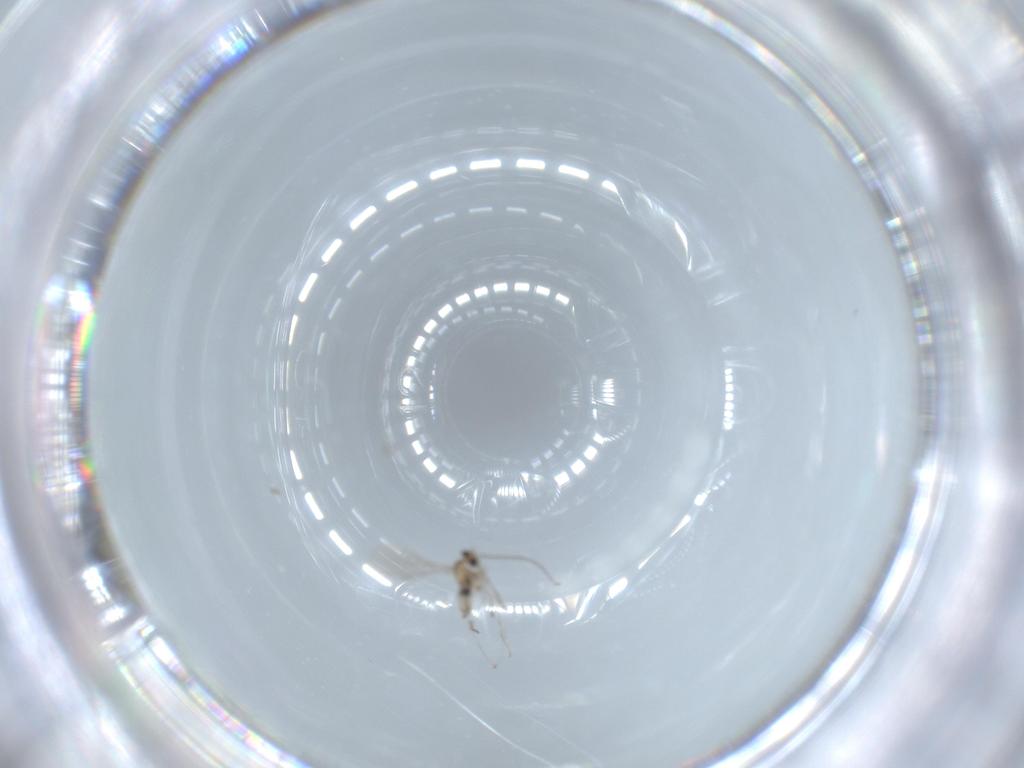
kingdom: Animalia
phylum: Arthropoda
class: Insecta
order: Diptera
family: Cecidomyiidae
